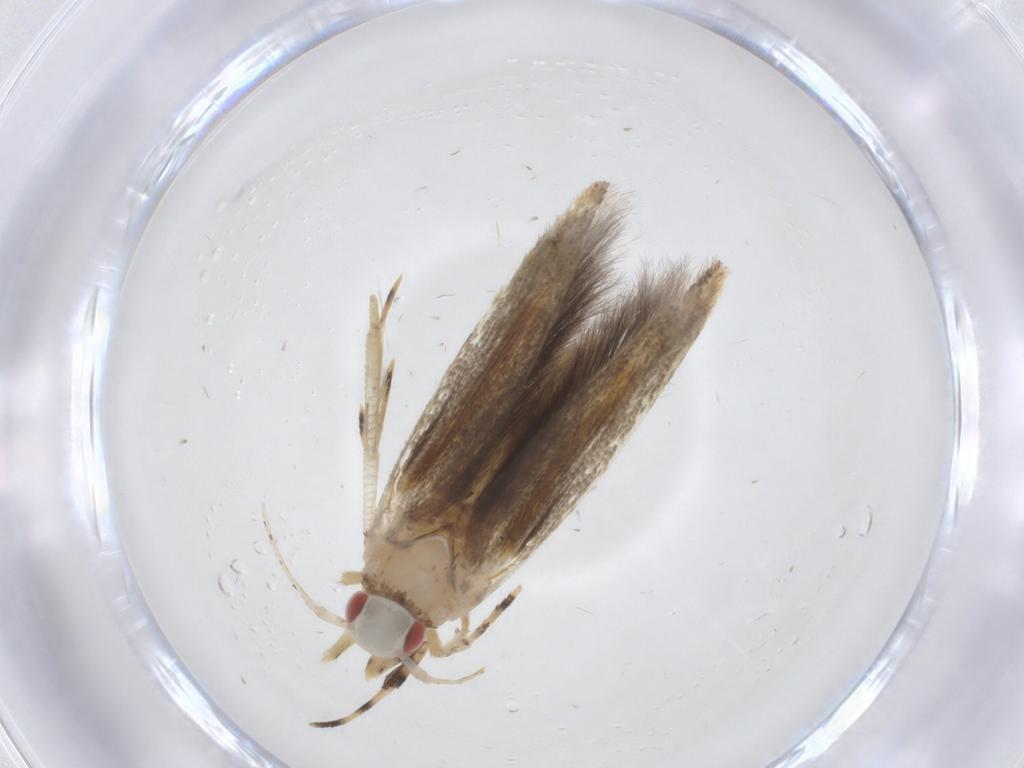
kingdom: Animalia
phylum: Arthropoda
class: Insecta
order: Lepidoptera
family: Cosmopterigidae
